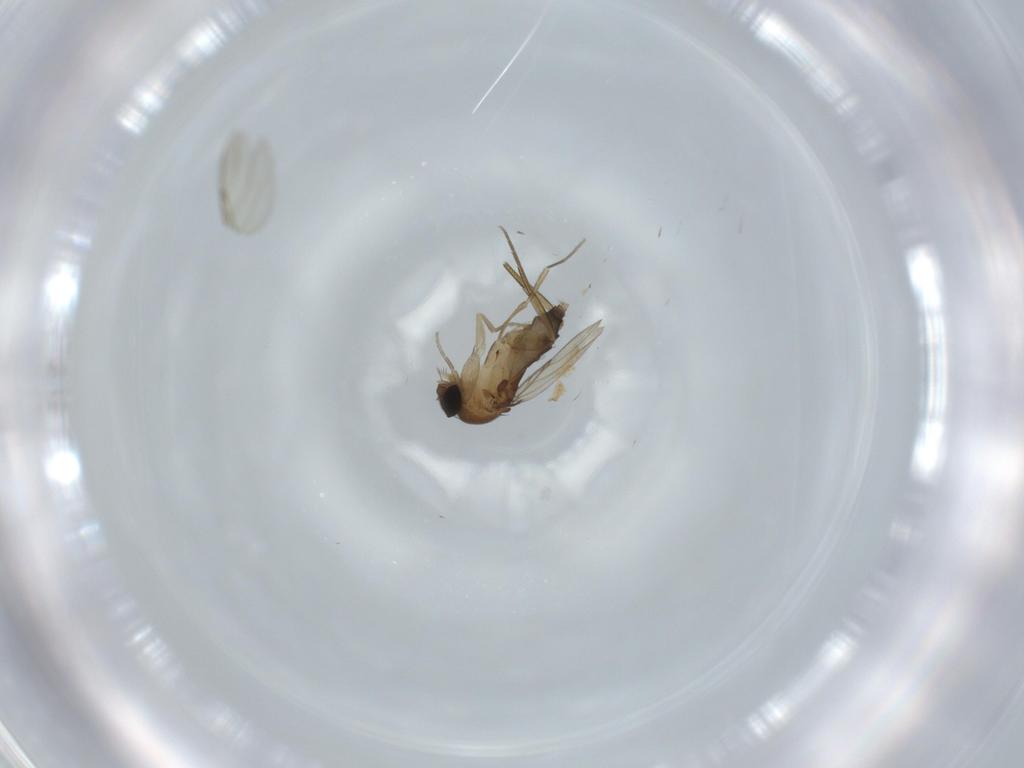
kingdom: Animalia
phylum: Arthropoda
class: Insecta
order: Diptera
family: Phoridae
